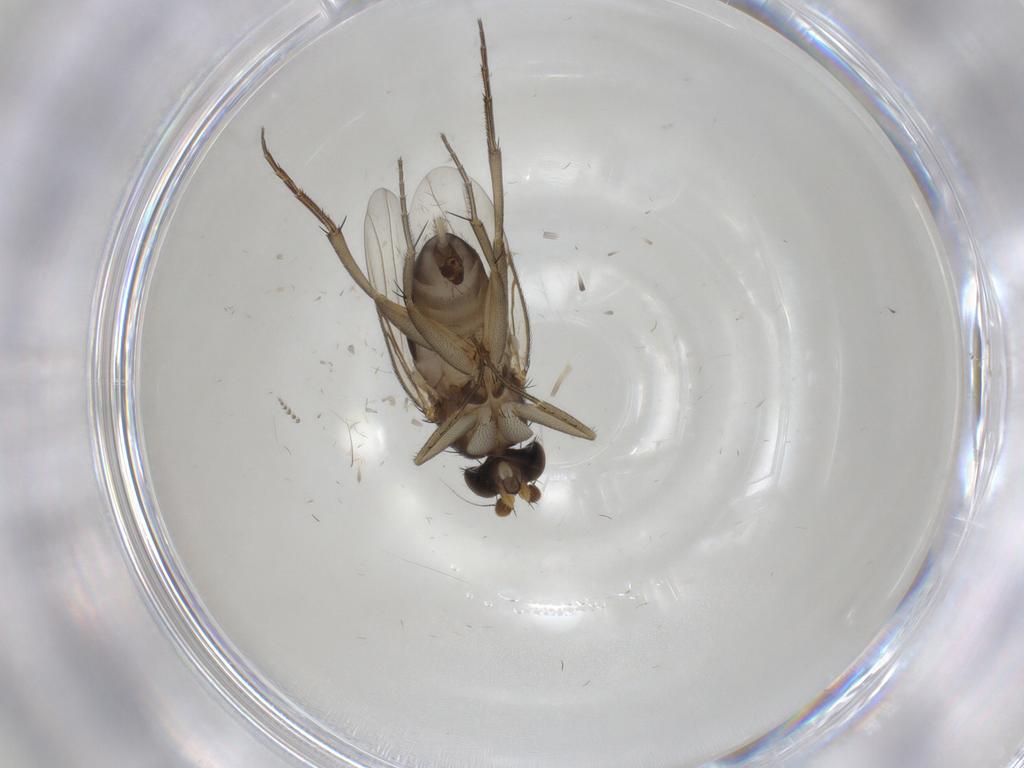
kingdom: Animalia
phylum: Arthropoda
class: Insecta
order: Diptera
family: Phoridae
